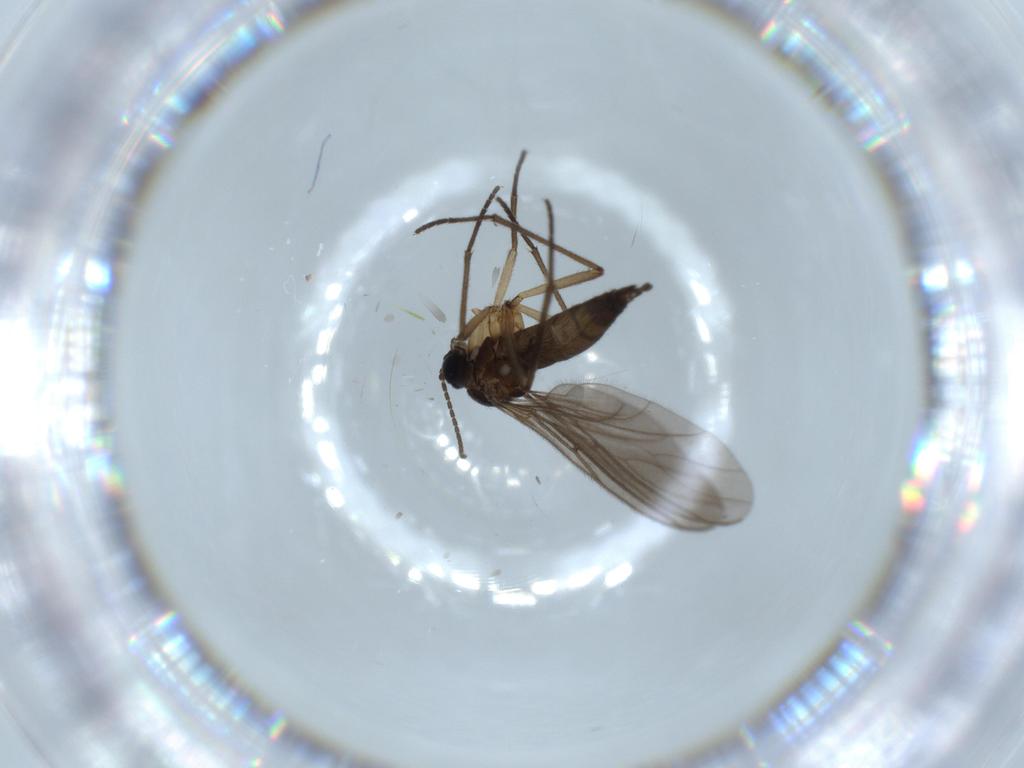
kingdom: Animalia
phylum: Arthropoda
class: Insecta
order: Diptera
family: Sciaridae
